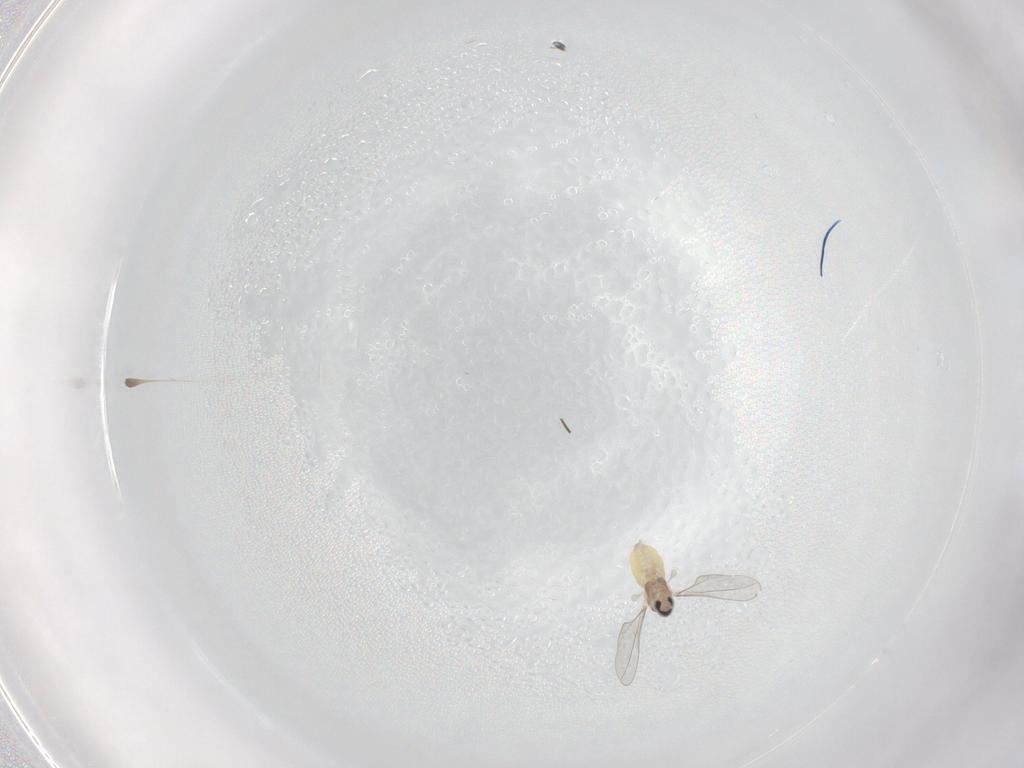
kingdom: Animalia
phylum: Arthropoda
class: Insecta
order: Diptera
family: Cecidomyiidae
